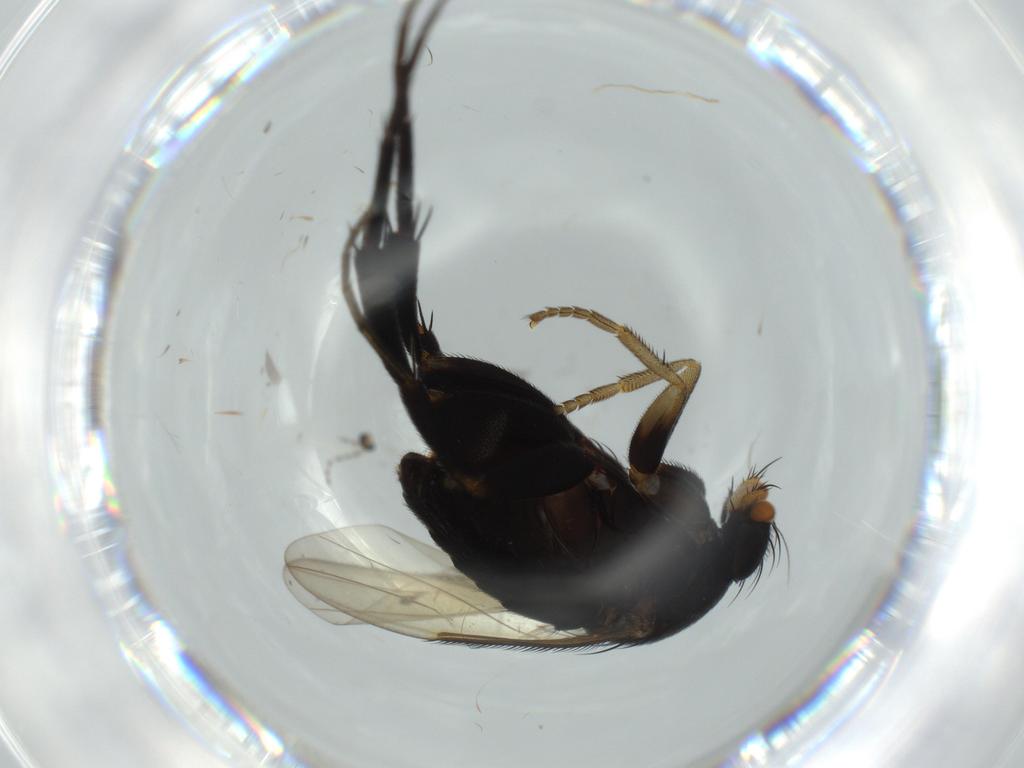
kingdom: Animalia
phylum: Arthropoda
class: Insecta
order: Diptera
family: Phoridae
